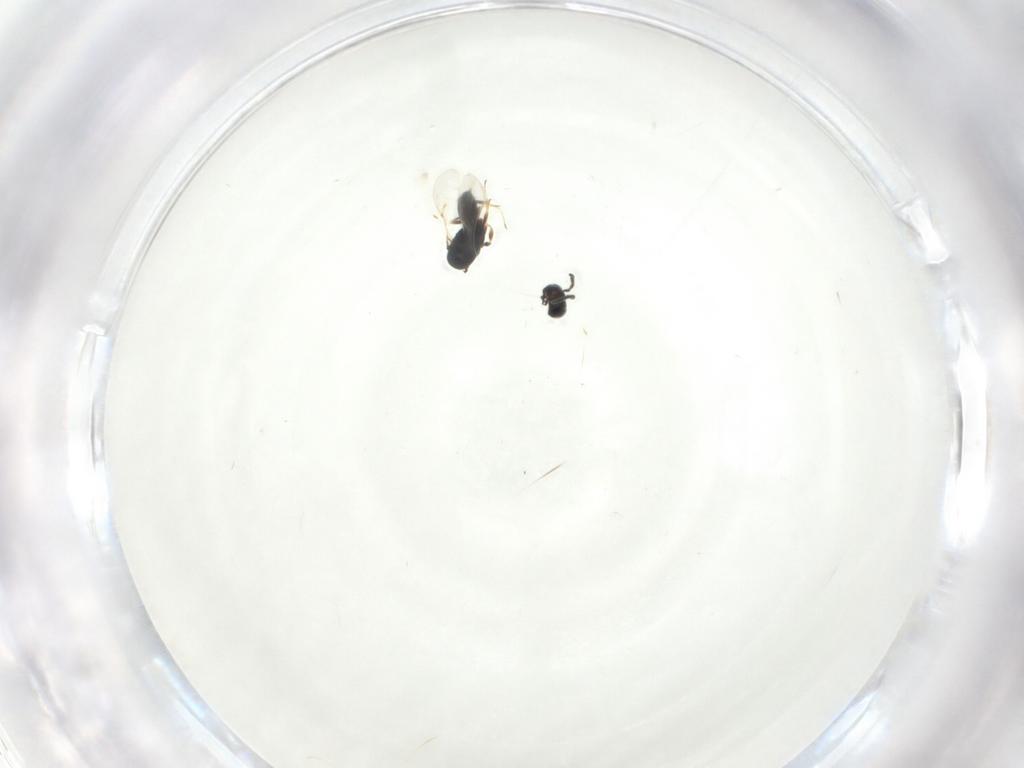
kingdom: Animalia
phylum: Arthropoda
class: Insecta
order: Hymenoptera
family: Scelionidae
